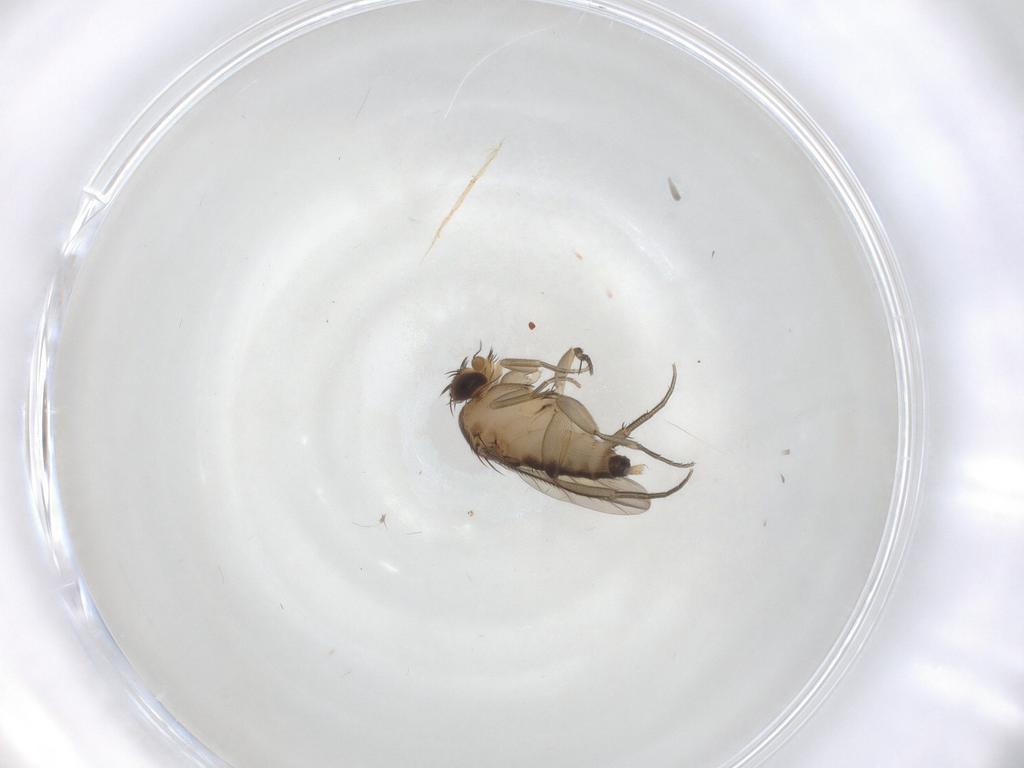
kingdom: Animalia
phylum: Arthropoda
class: Insecta
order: Diptera
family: Phoridae
